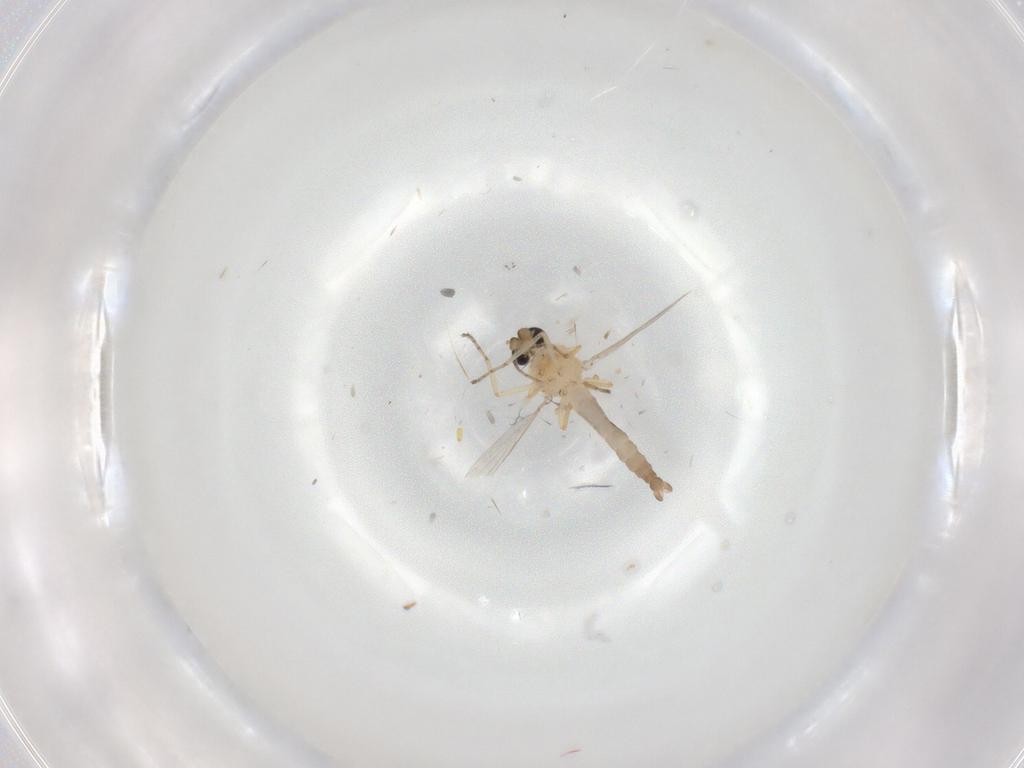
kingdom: Animalia
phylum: Arthropoda
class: Insecta
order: Diptera
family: Ceratopogonidae
